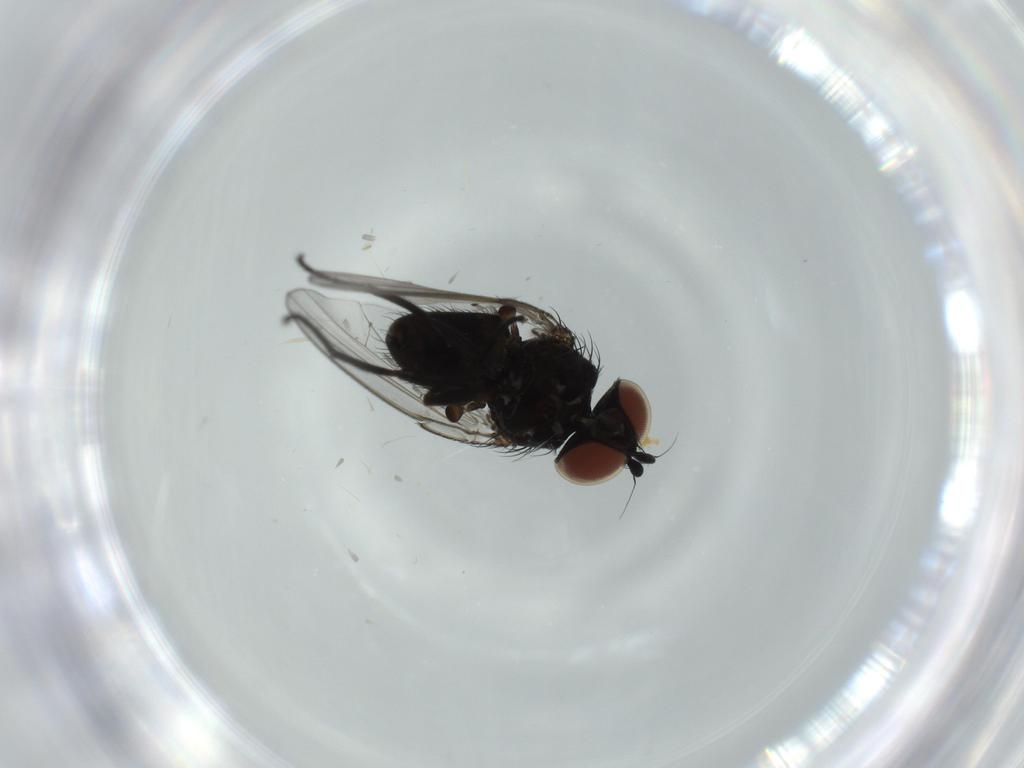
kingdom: Animalia
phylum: Arthropoda
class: Insecta
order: Diptera
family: Milichiidae
